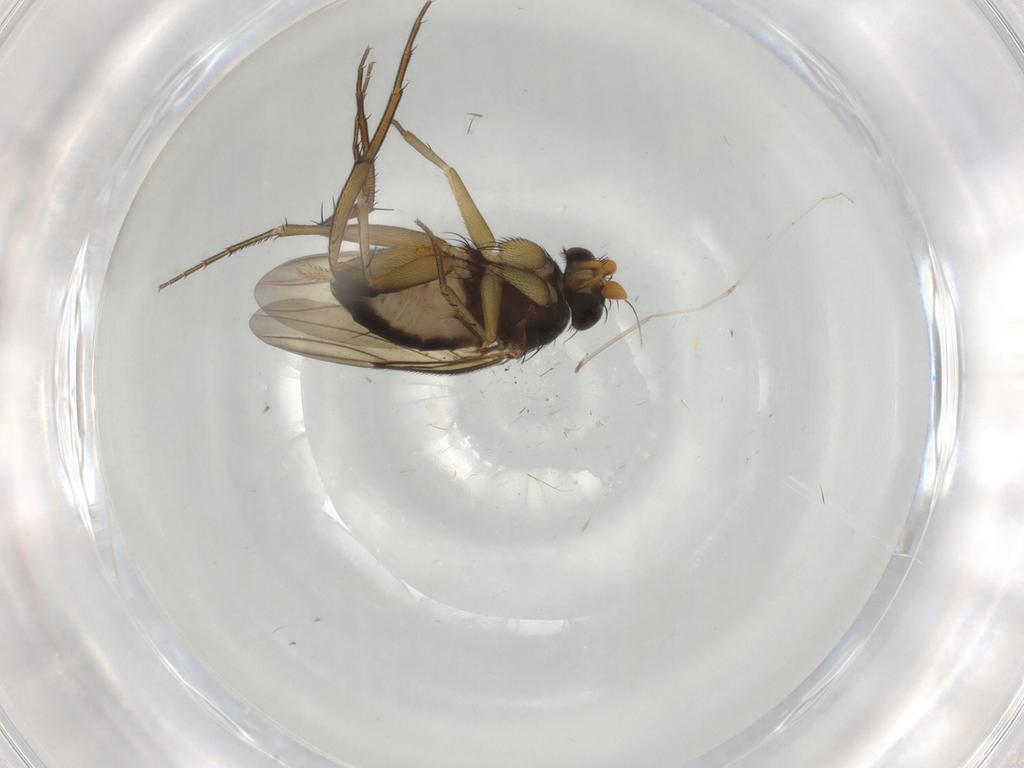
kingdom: Animalia
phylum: Arthropoda
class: Insecta
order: Diptera
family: Phoridae
